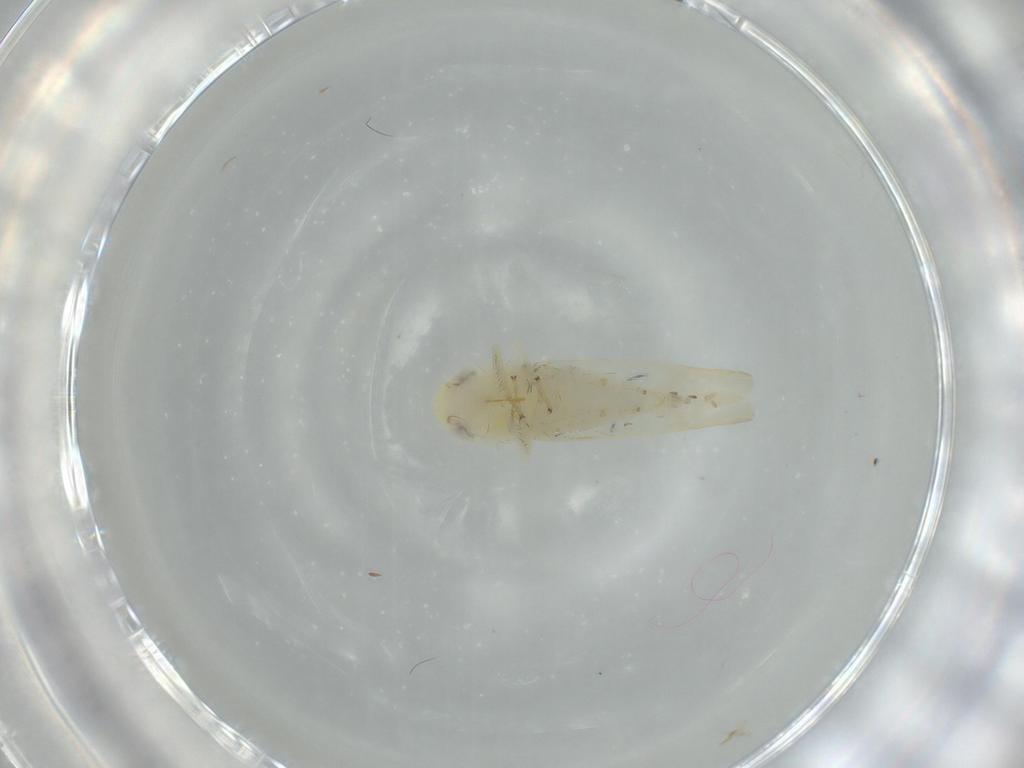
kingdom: Animalia
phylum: Arthropoda
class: Insecta
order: Hemiptera
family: Cicadellidae
